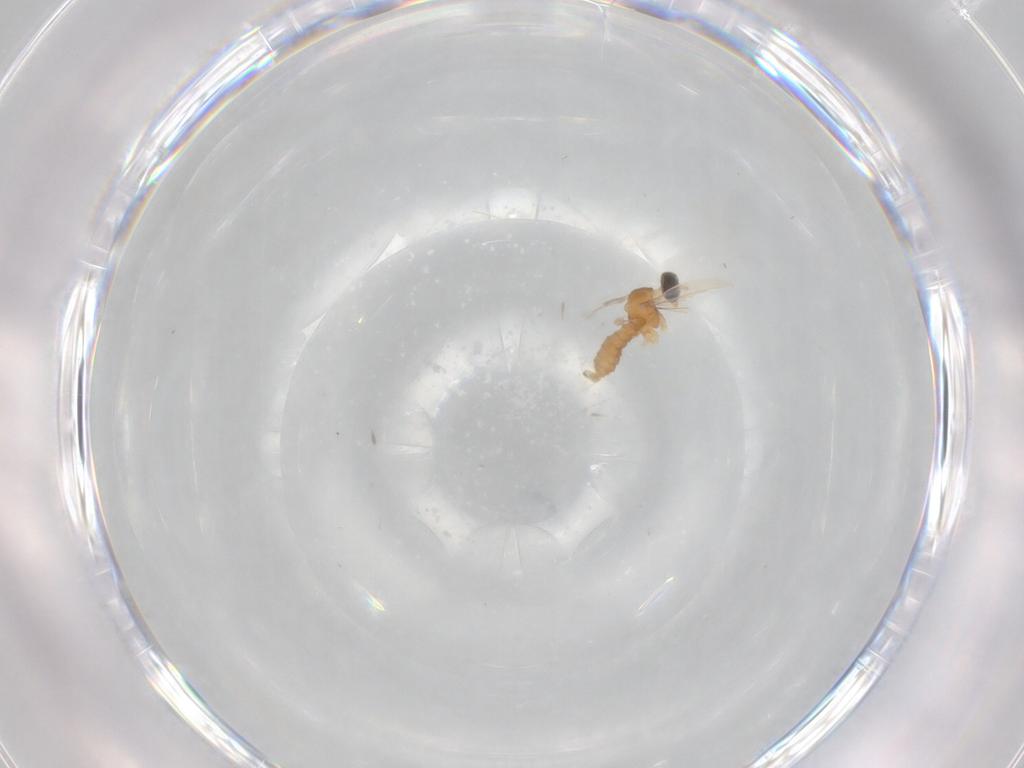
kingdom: Animalia
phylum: Arthropoda
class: Insecta
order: Diptera
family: Cecidomyiidae
